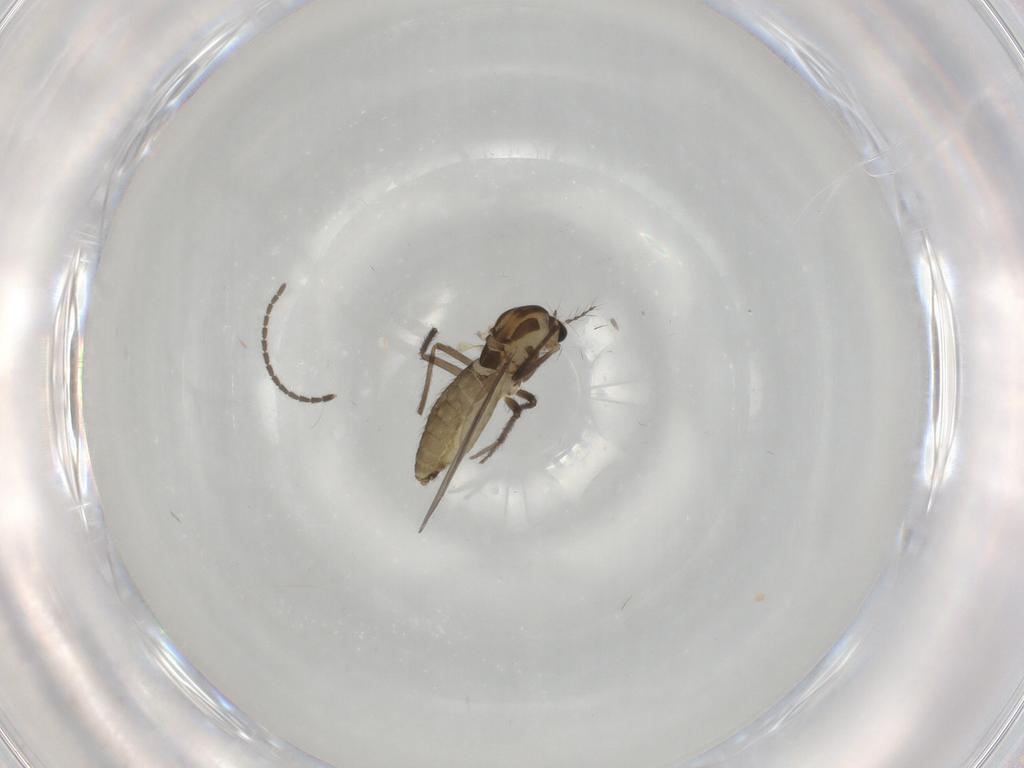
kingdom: Animalia
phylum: Arthropoda
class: Insecta
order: Diptera
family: Chironomidae
